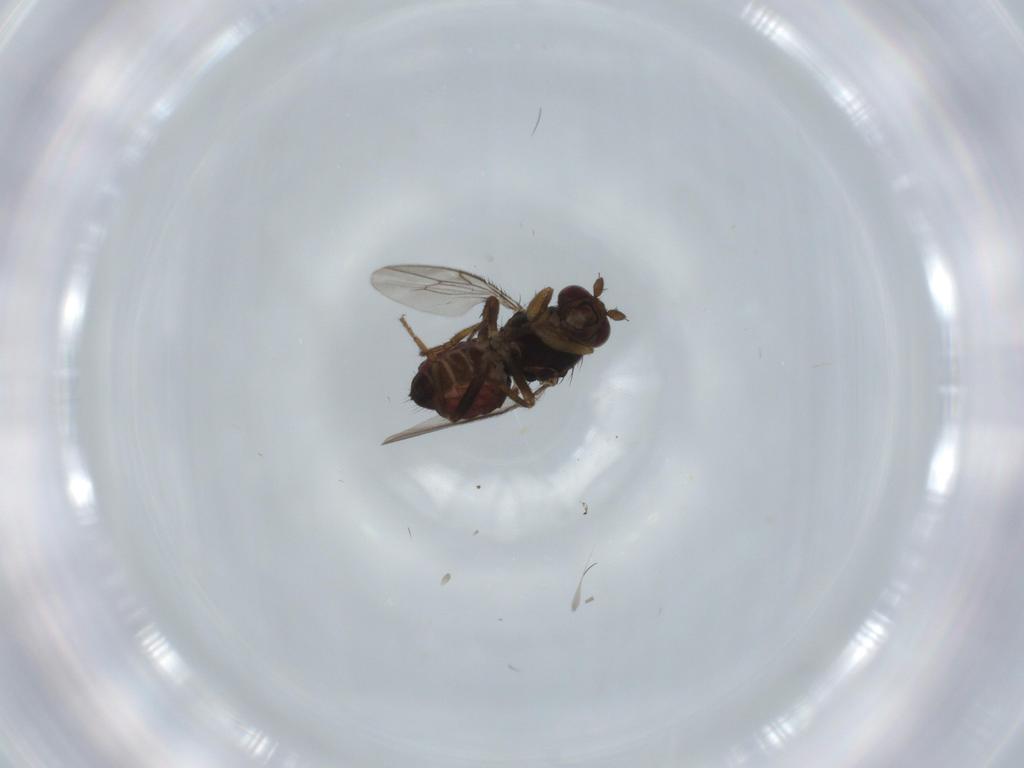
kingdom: Animalia
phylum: Arthropoda
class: Insecta
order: Diptera
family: Sphaeroceridae
